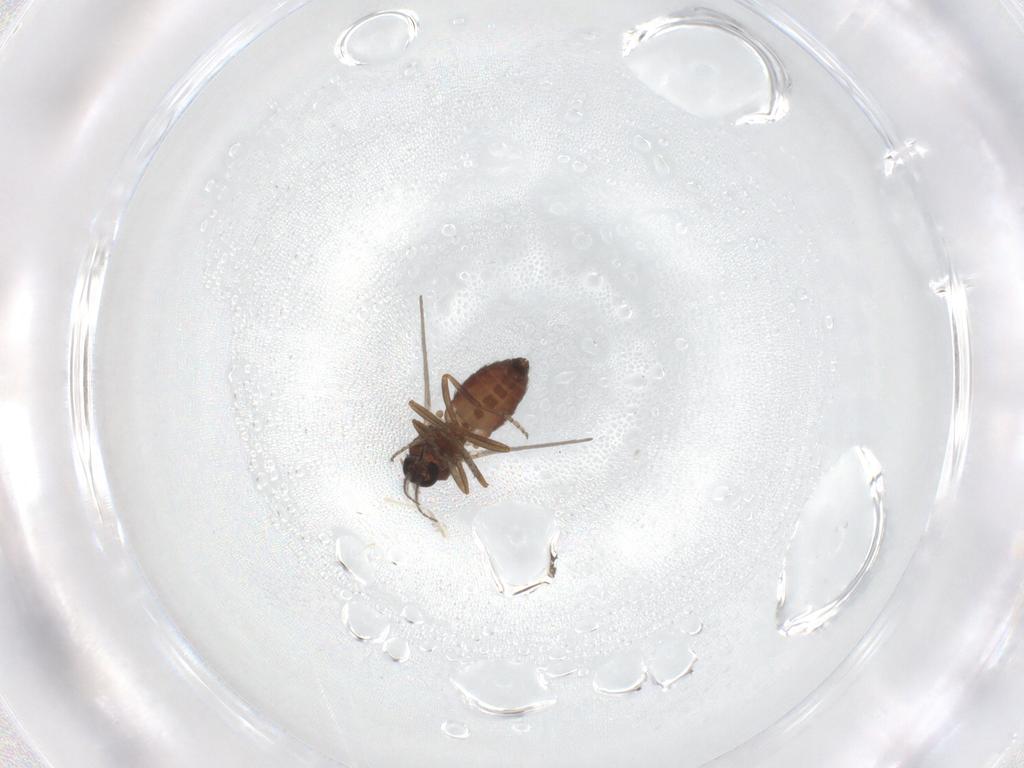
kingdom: Animalia
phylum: Arthropoda
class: Insecta
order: Diptera
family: Ceratopogonidae
